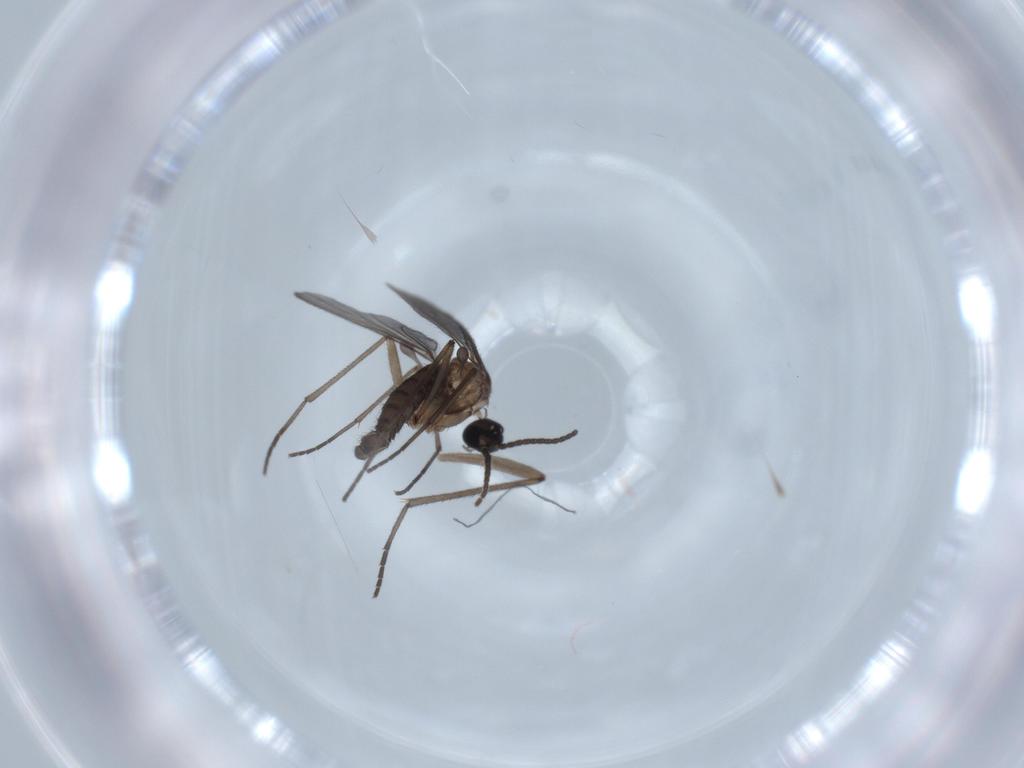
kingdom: Animalia
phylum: Arthropoda
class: Insecta
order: Diptera
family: Sciaridae
